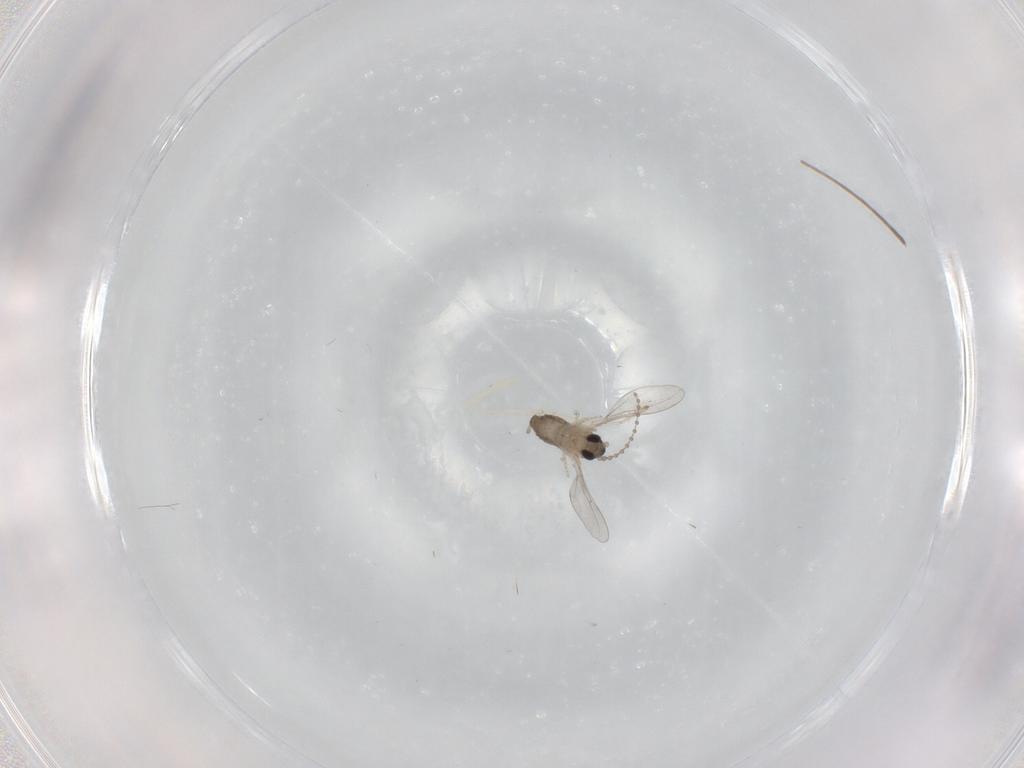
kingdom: Animalia
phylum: Arthropoda
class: Insecta
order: Diptera
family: Cecidomyiidae
